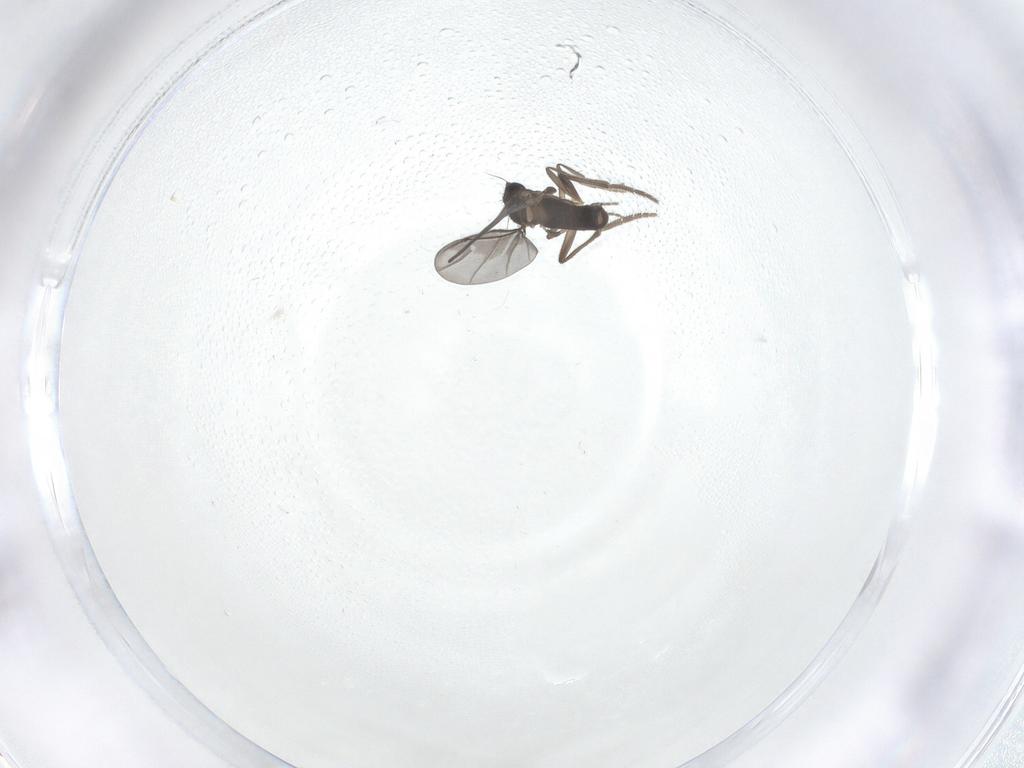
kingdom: Animalia
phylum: Arthropoda
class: Insecta
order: Diptera
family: Phoridae
